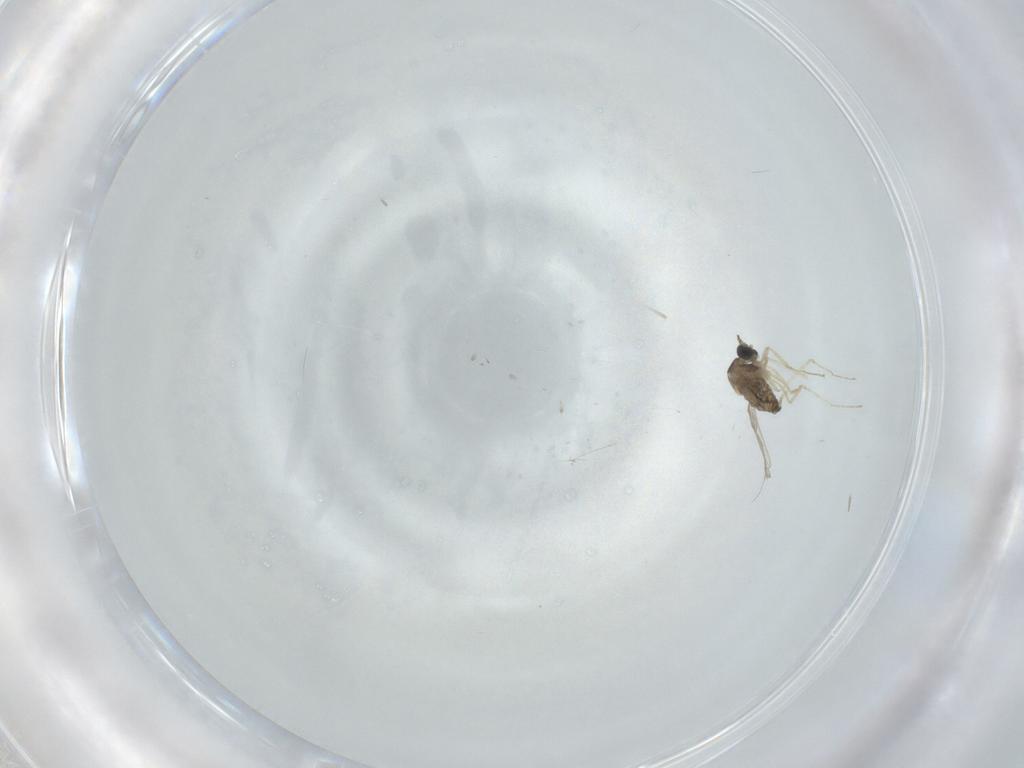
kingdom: Animalia
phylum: Arthropoda
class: Insecta
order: Diptera
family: Cecidomyiidae
